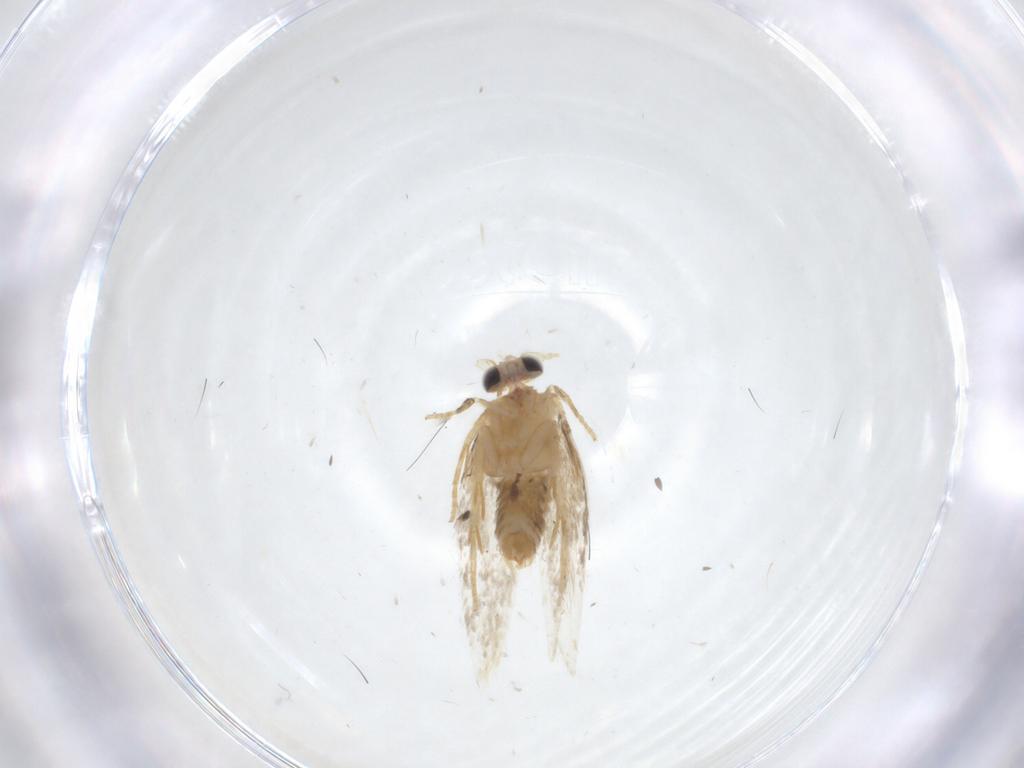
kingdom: Animalia
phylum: Arthropoda
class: Insecta
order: Lepidoptera
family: Nepticulidae
